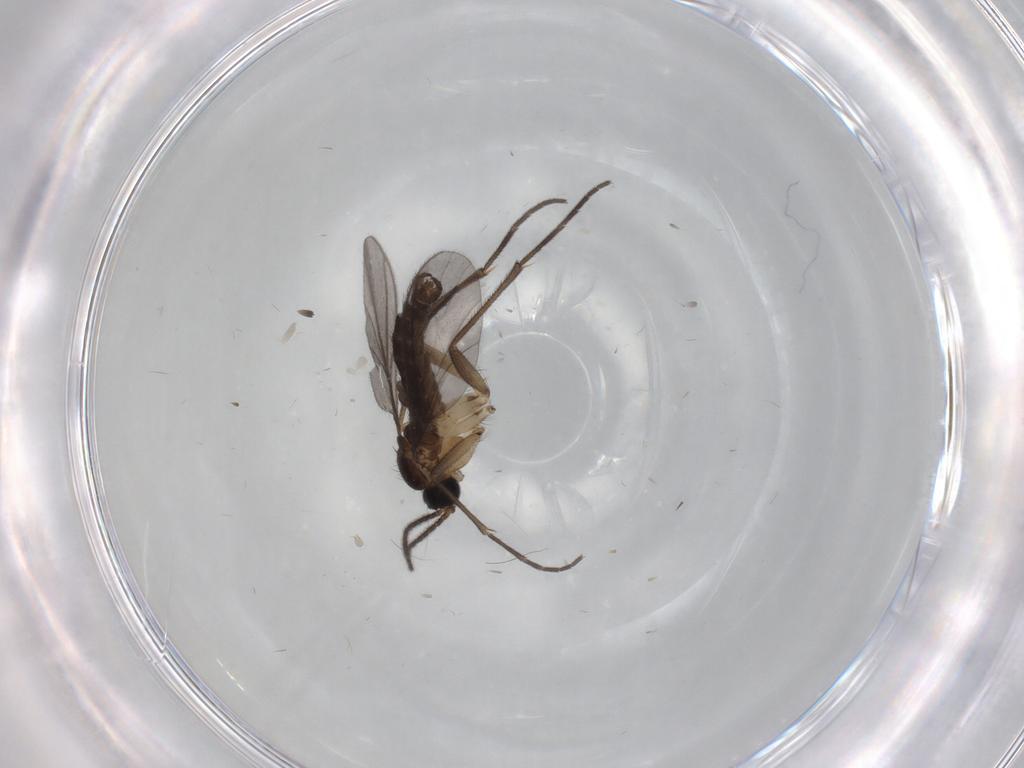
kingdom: Animalia
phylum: Arthropoda
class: Insecta
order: Diptera
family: Sciaridae
